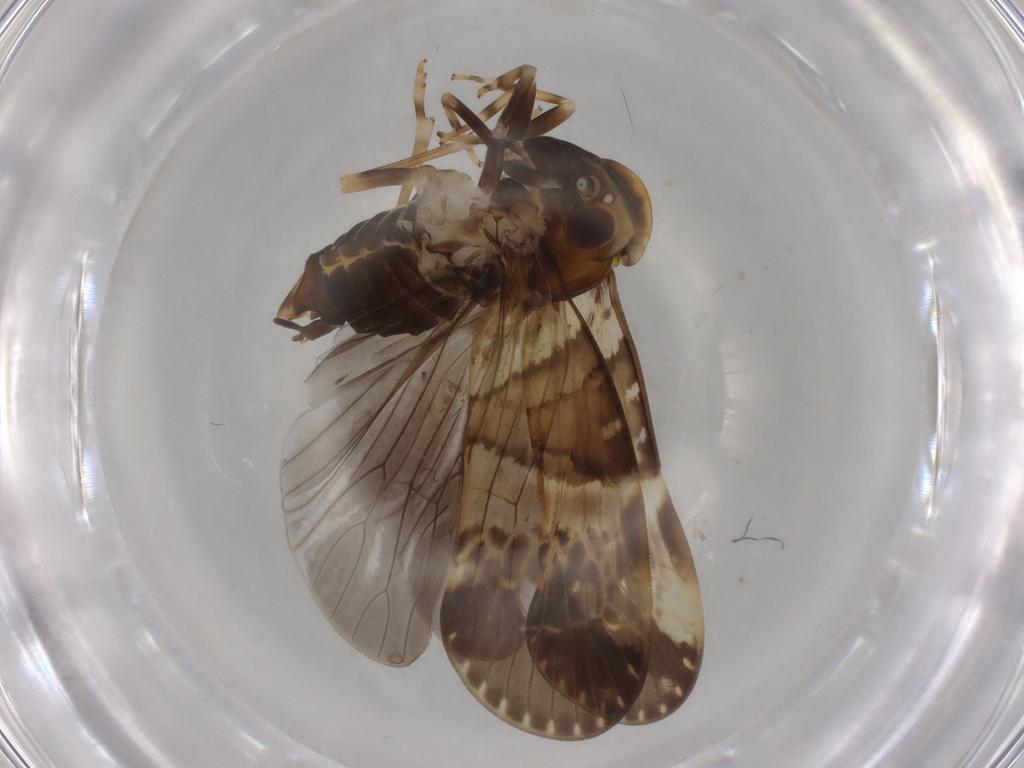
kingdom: Animalia
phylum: Arthropoda
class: Insecta
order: Hemiptera
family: Cixiidae
